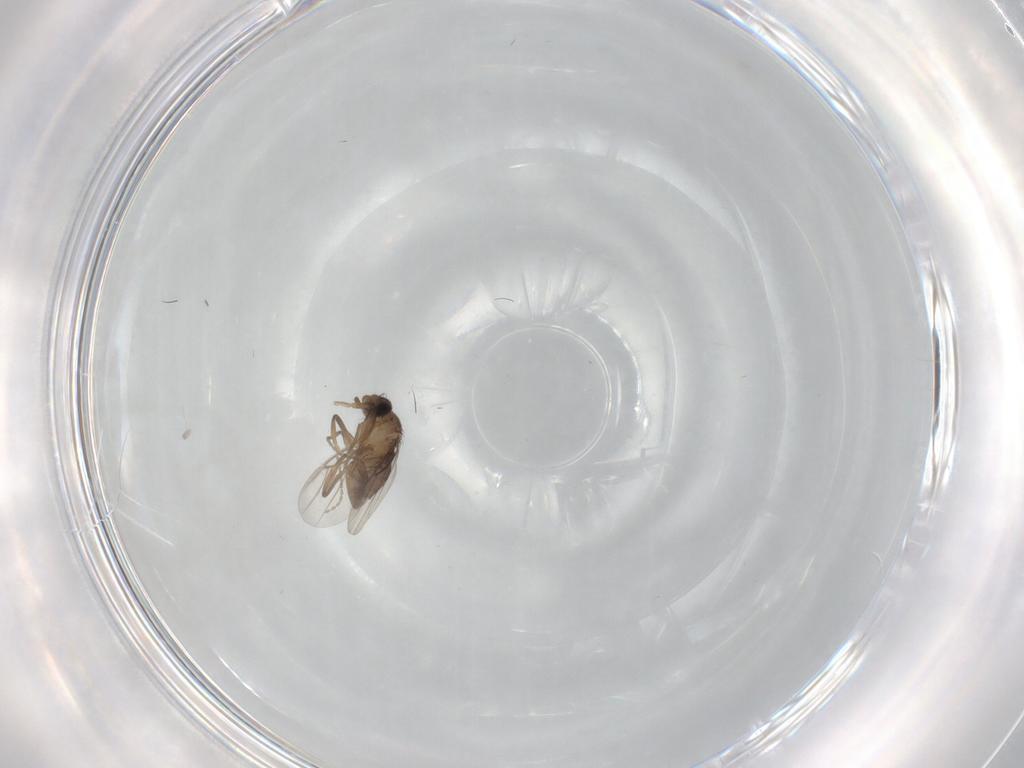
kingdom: Animalia
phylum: Arthropoda
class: Insecta
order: Diptera
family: Phoridae
